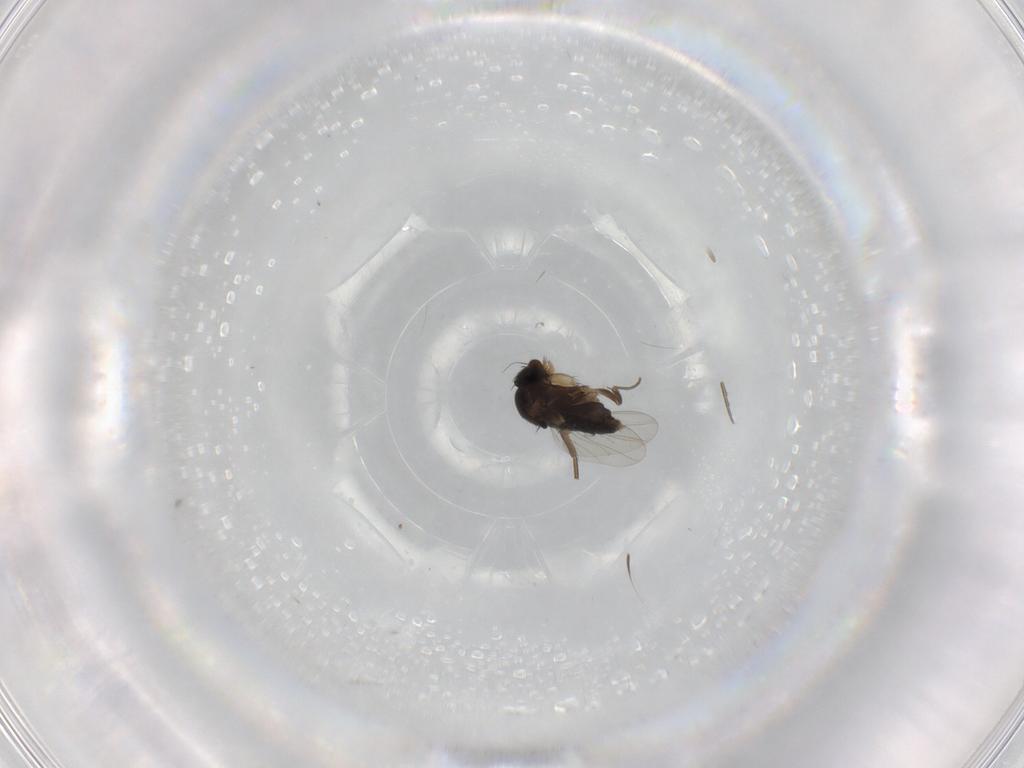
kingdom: Animalia
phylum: Arthropoda
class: Insecta
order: Diptera
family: Phoridae
